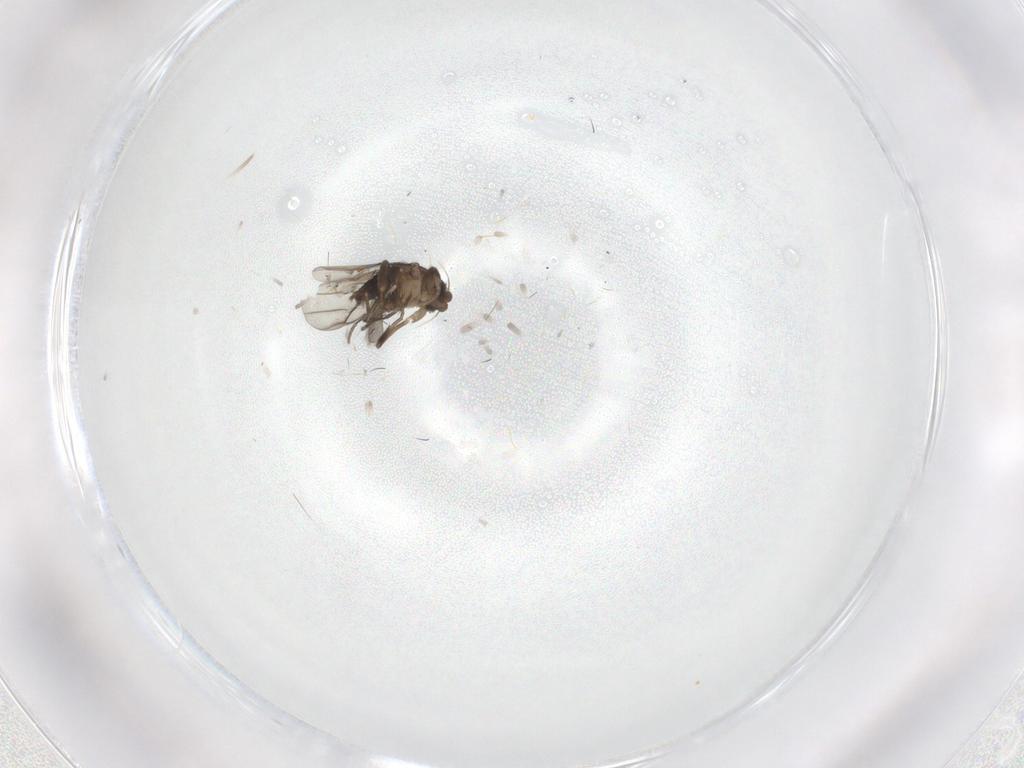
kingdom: Animalia
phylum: Arthropoda
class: Insecta
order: Diptera
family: Phoridae
